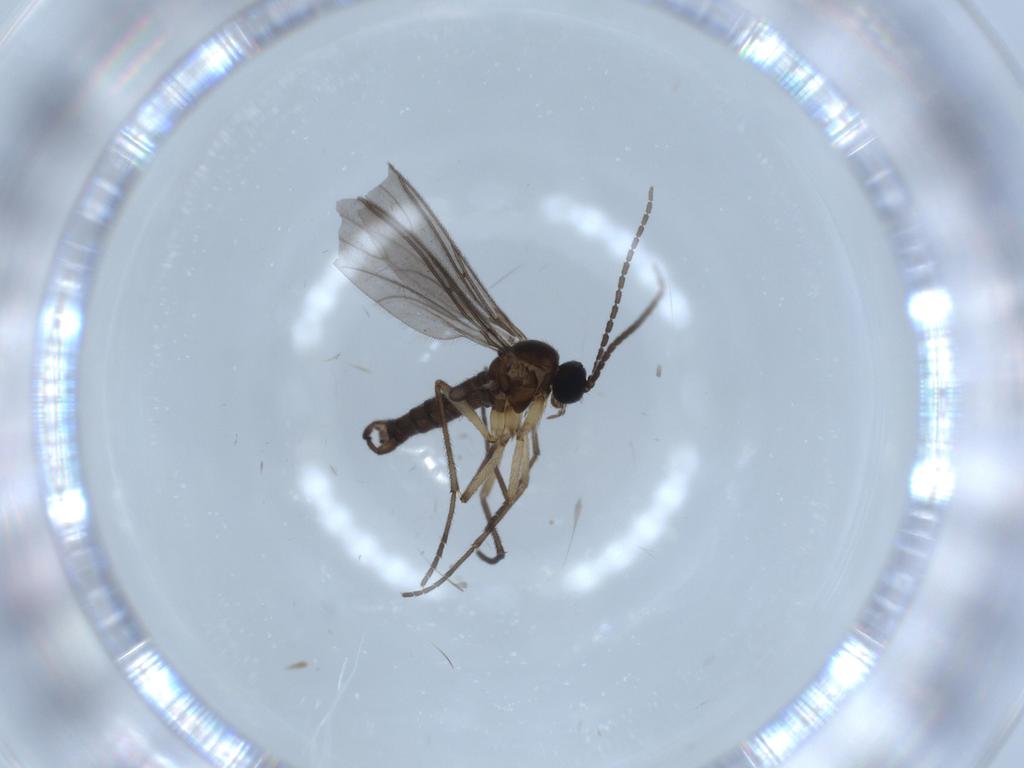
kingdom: Animalia
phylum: Arthropoda
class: Insecta
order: Diptera
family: Sciaridae
